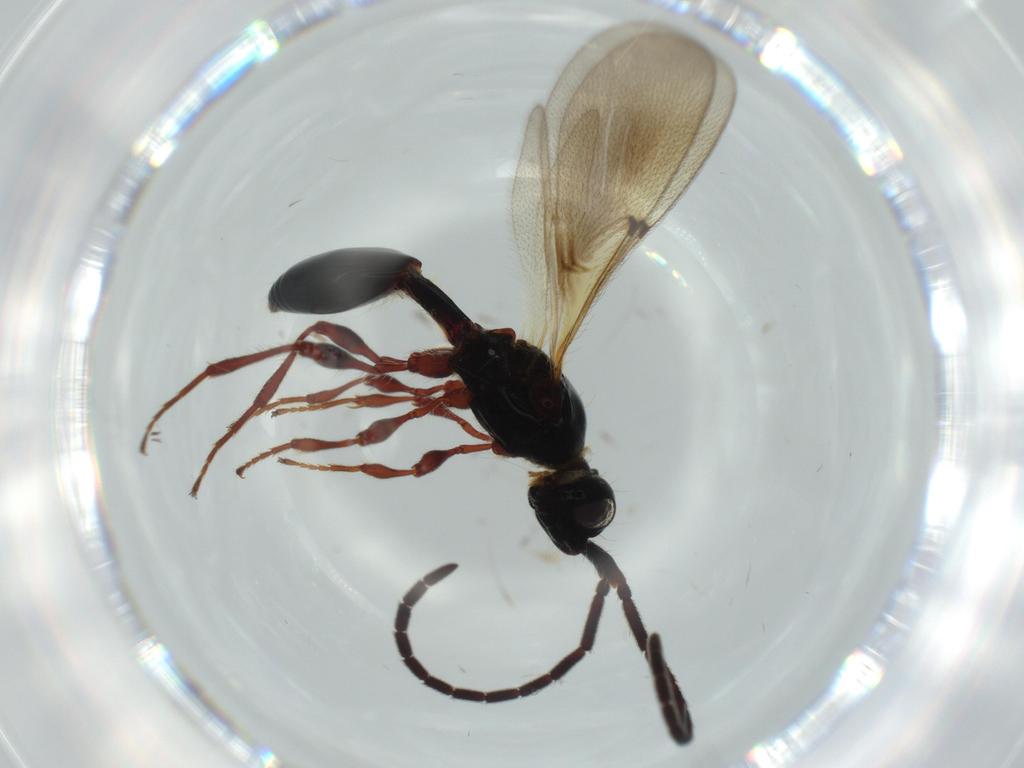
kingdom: Animalia
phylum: Arthropoda
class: Insecta
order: Hymenoptera
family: Diapriidae
